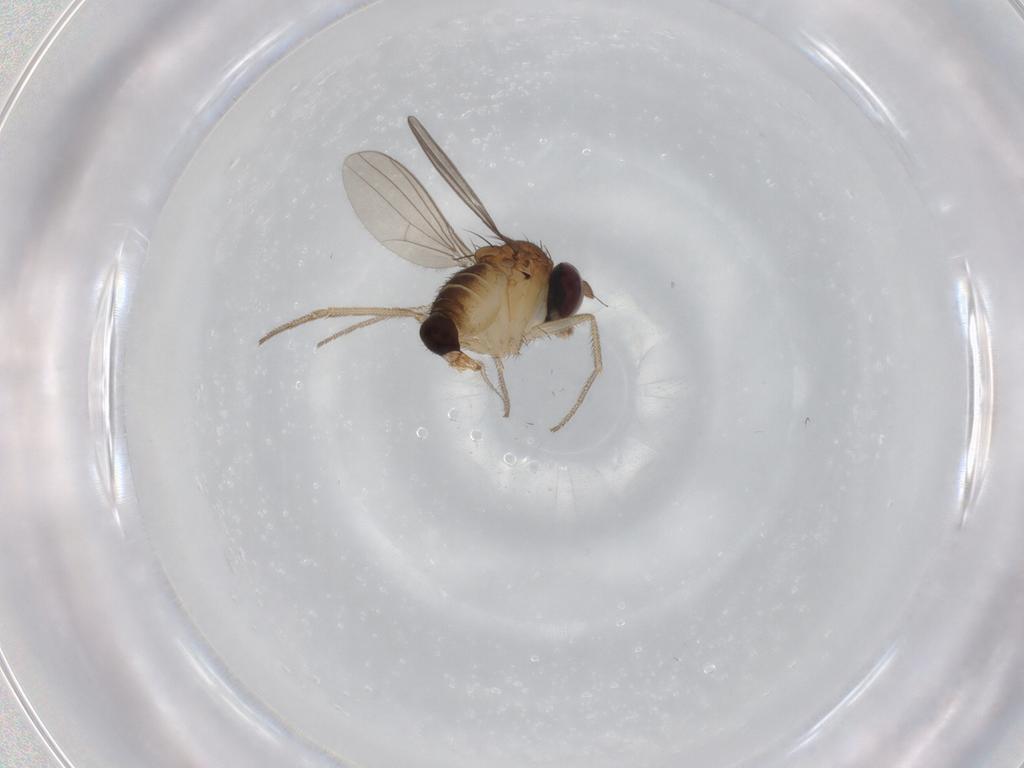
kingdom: Animalia
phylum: Arthropoda
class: Insecta
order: Diptera
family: Dolichopodidae
